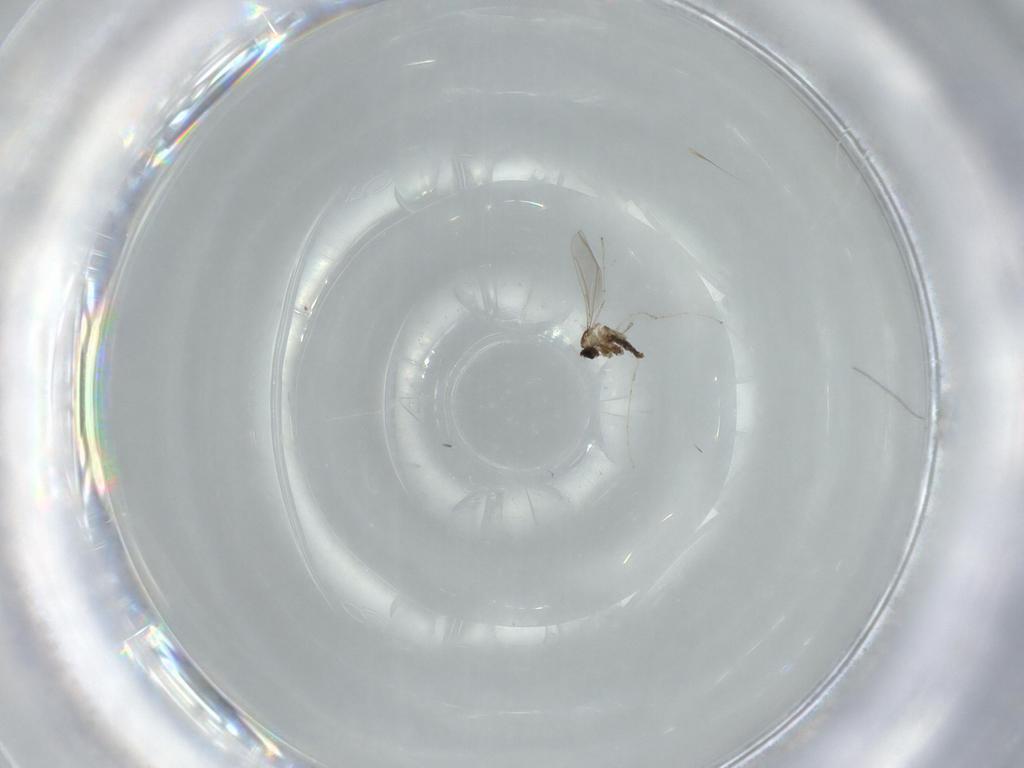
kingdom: Animalia
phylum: Arthropoda
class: Insecta
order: Diptera
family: Cecidomyiidae
